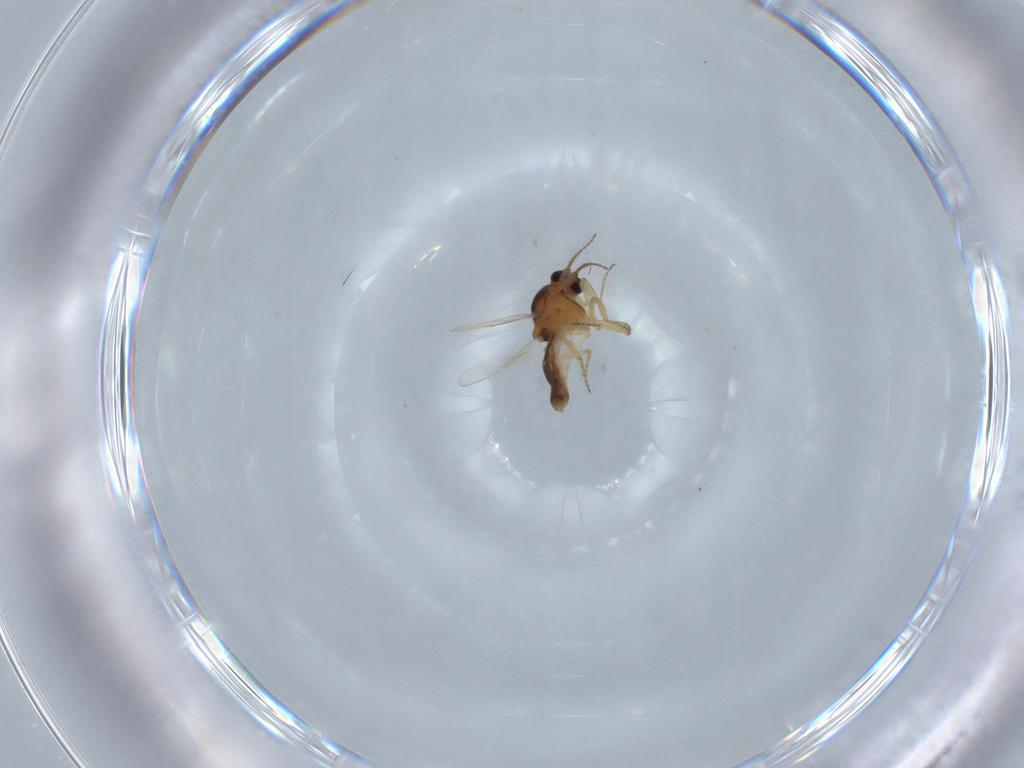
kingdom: Animalia
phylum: Arthropoda
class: Insecta
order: Diptera
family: Ceratopogonidae
